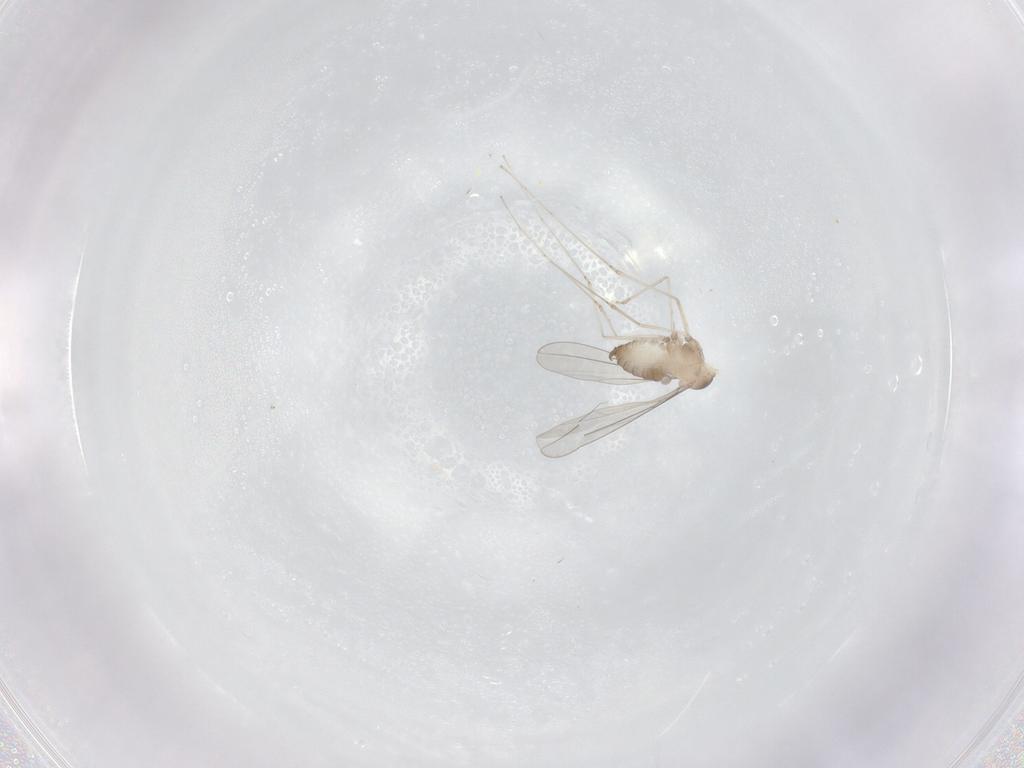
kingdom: Animalia
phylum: Arthropoda
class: Insecta
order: Diptera
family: Cecidomyiidae
